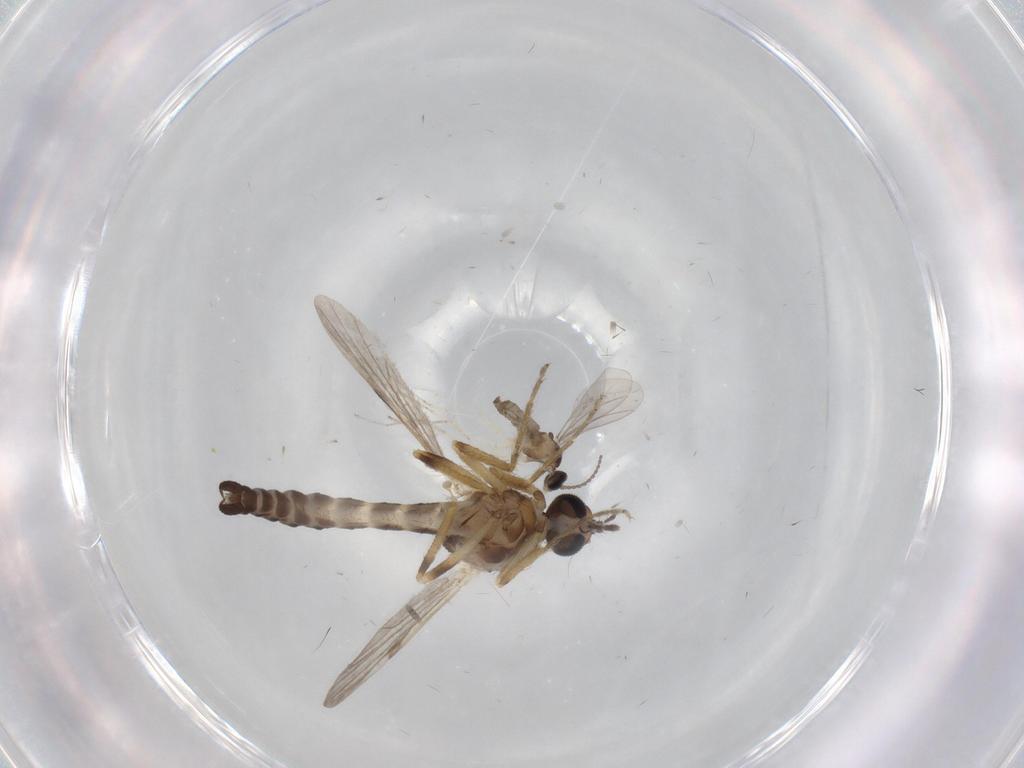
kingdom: Animalia
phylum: Arthropoda
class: Insecta
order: Diptera
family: Ceratopogonidae
